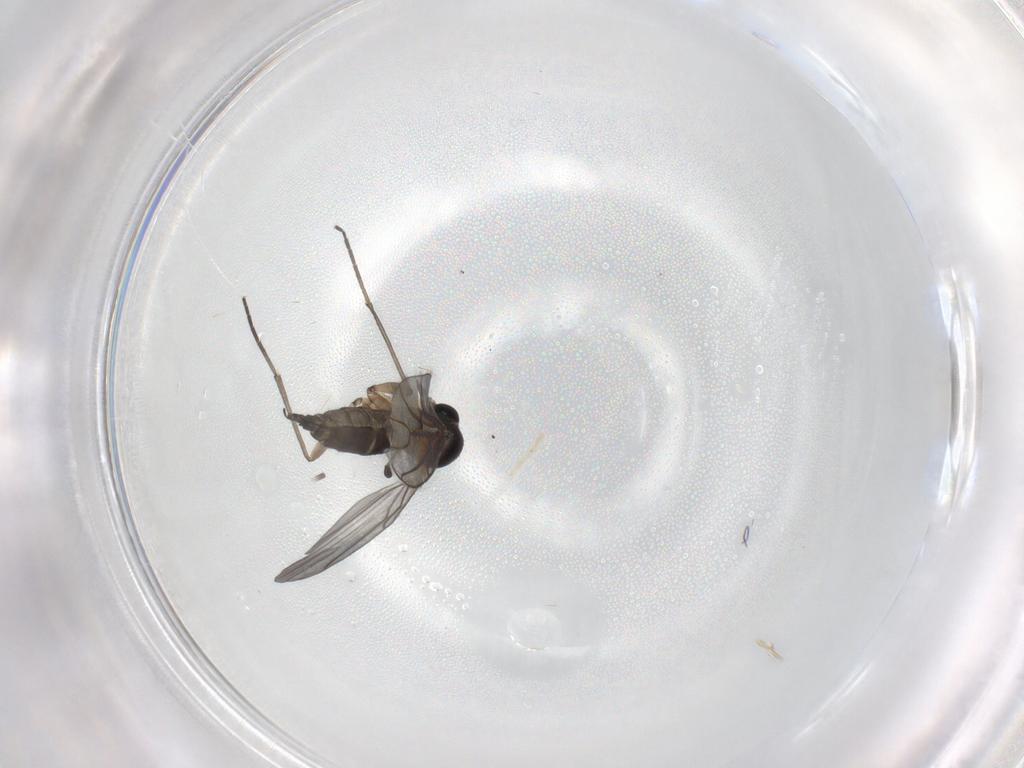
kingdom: Animalia
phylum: Arthropoda
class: Insecta
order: Diptera
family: Sciaridae
